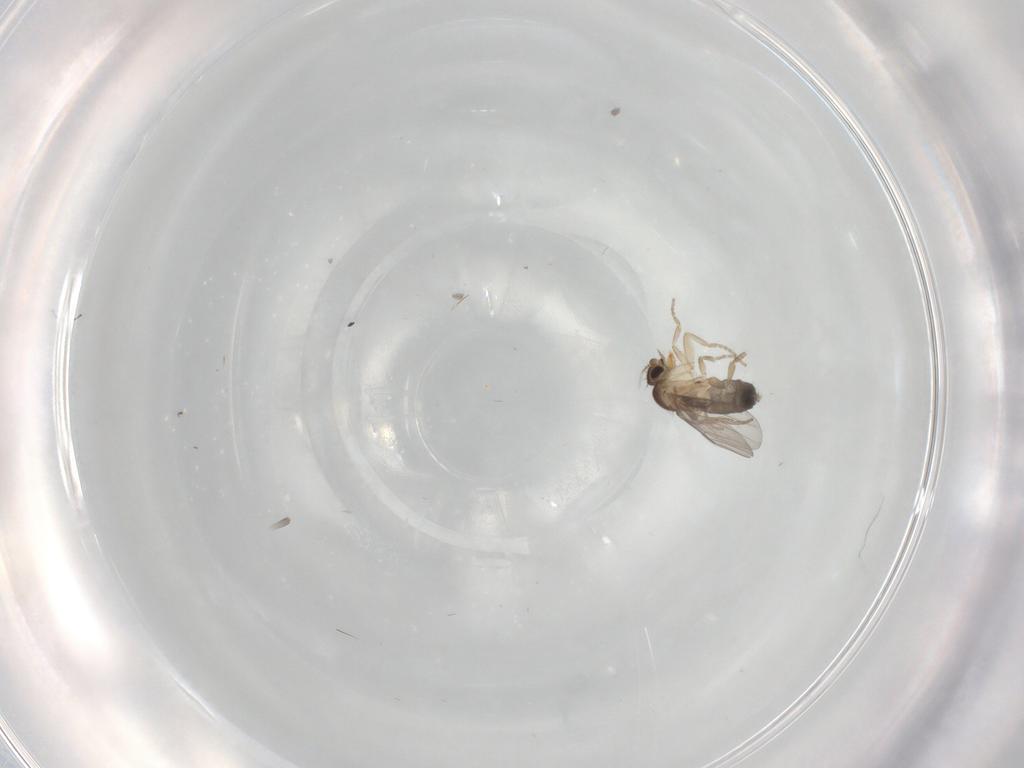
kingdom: Animalia
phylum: Arthropoda
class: Insecta
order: Diptera
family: Phoridae
